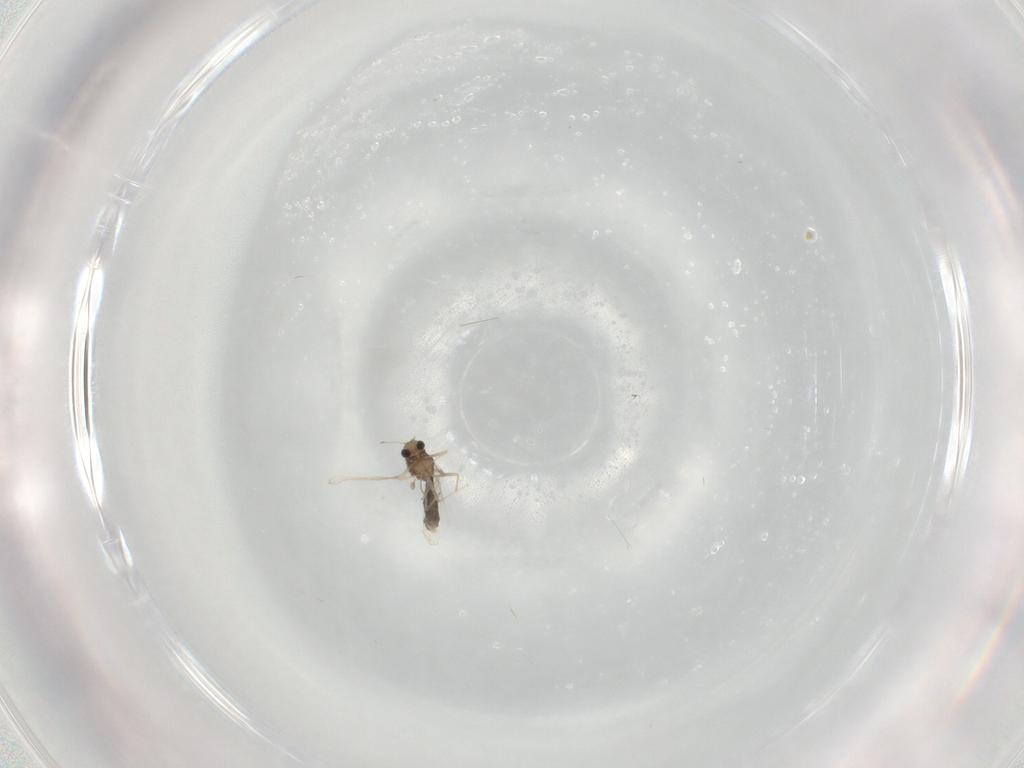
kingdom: Animalia
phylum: Arthropoda
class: Insecta
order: Diptera
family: Chironomidae
